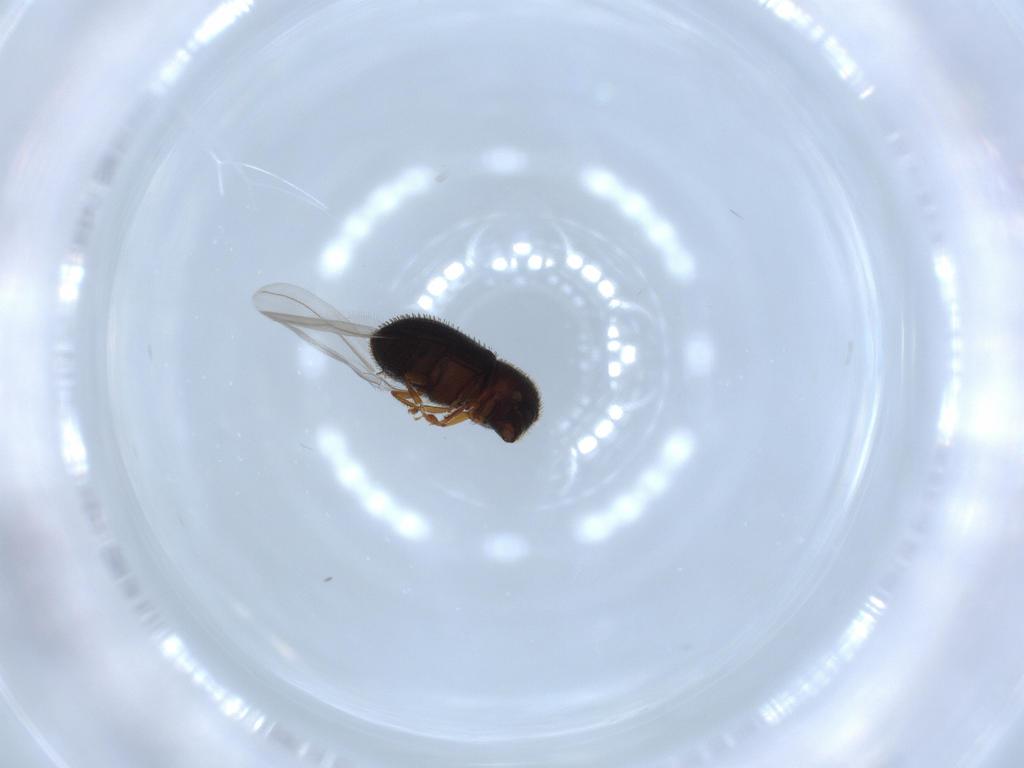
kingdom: Animalia
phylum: Arthropoda
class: Insecta
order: Coleoptera
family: Curculionidae
